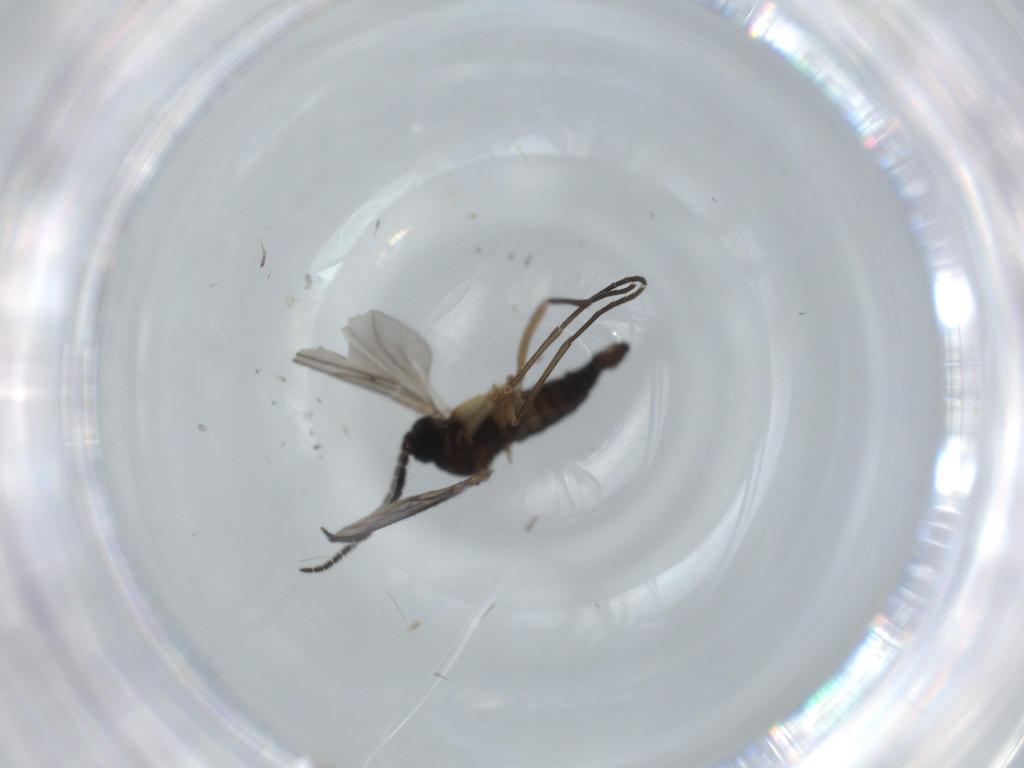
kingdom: Animalia
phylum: Arthropoda
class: Insecta
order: Diptera
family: Sciaridae
